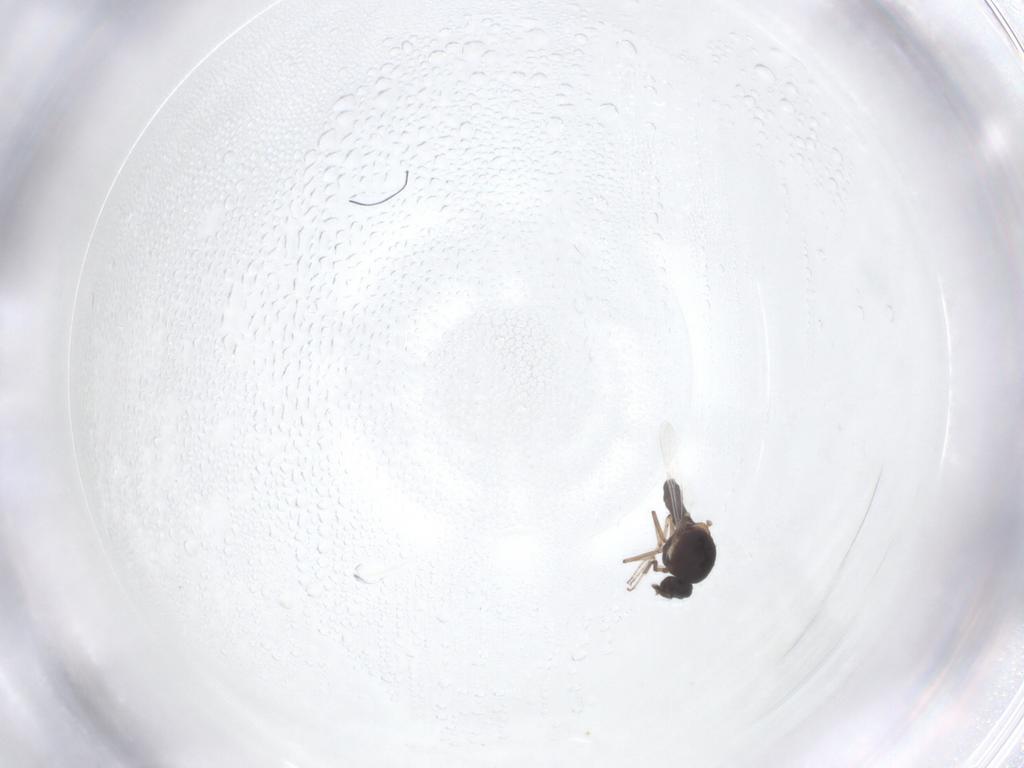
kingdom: Animalia
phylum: Arthropoda
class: Insecta
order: Diptera
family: Ceratopogonidae
